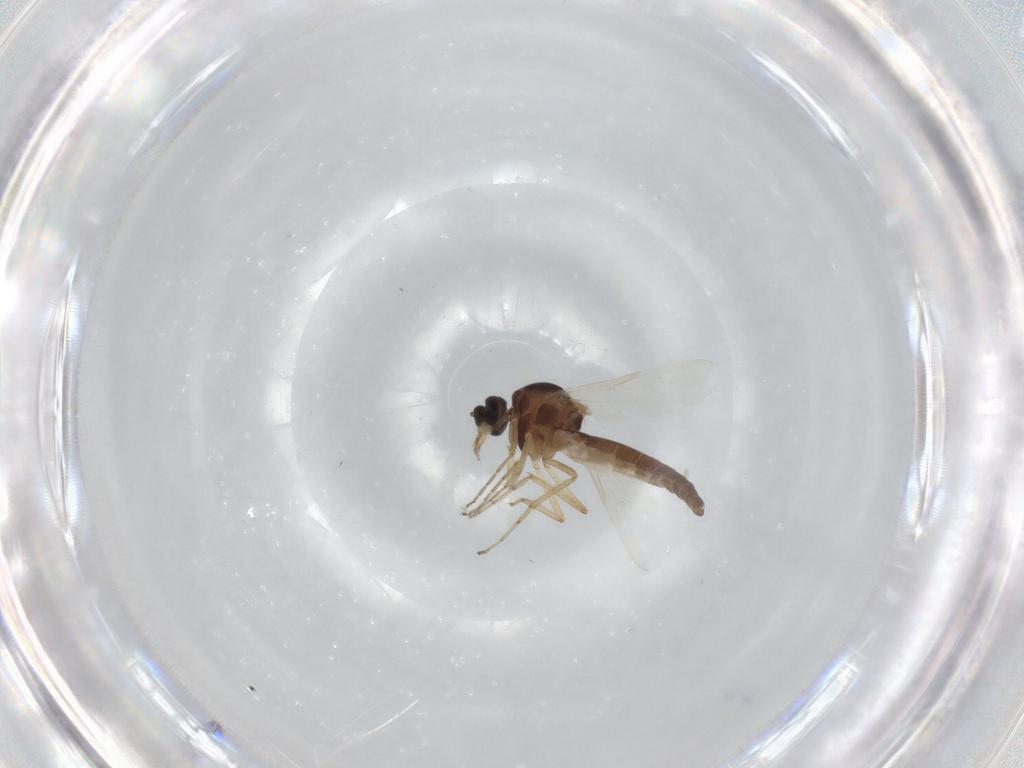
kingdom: Animalia
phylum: Arthropoda
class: Insecta
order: Diptera
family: Ceratopogonidae
